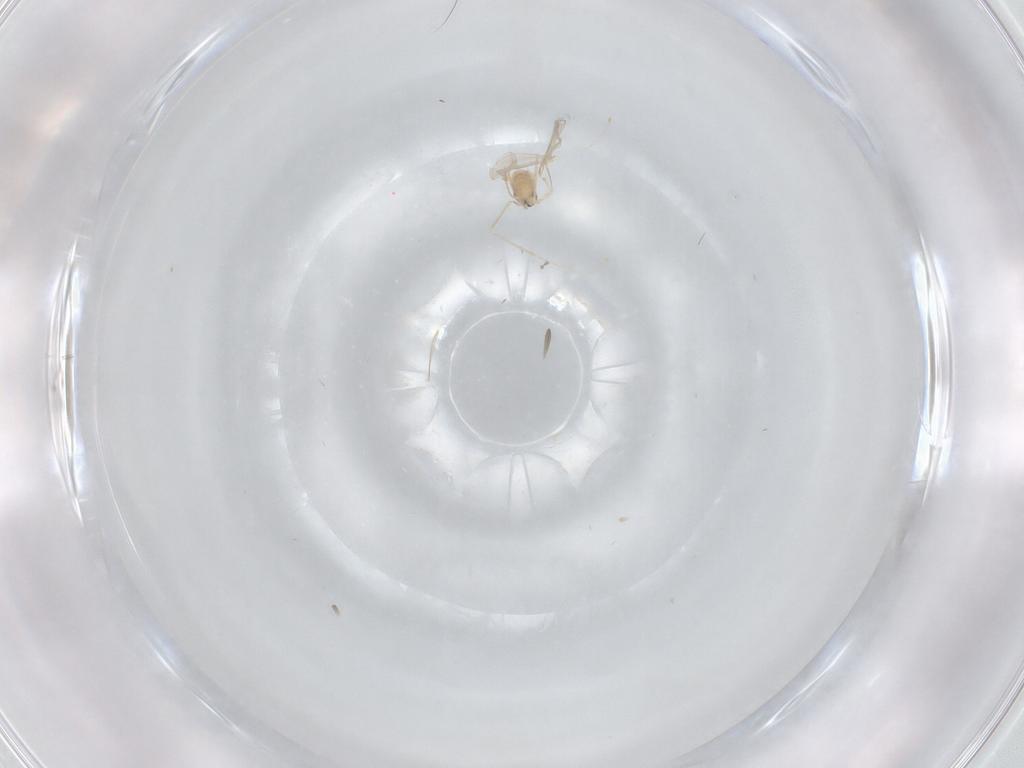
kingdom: Animalia
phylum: Arthropoda
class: Insecta
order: Diptera
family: Cecidomyiidae
